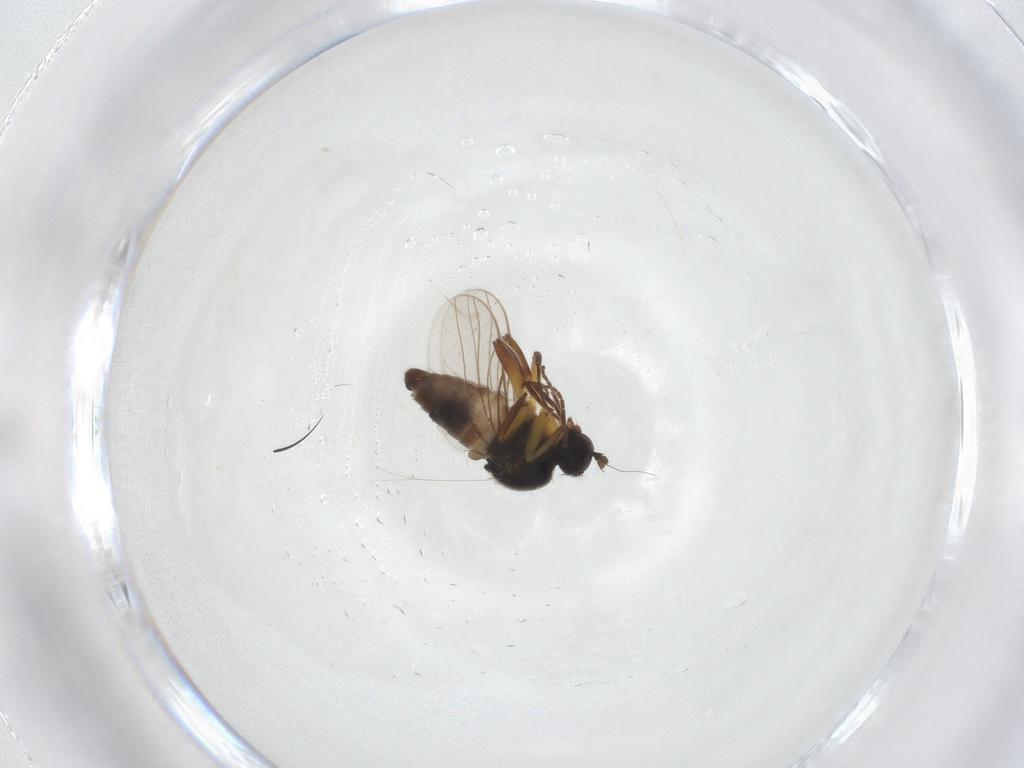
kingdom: Animalia
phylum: Arthropoda
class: Insecta
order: Diptera
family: Hybotidae
